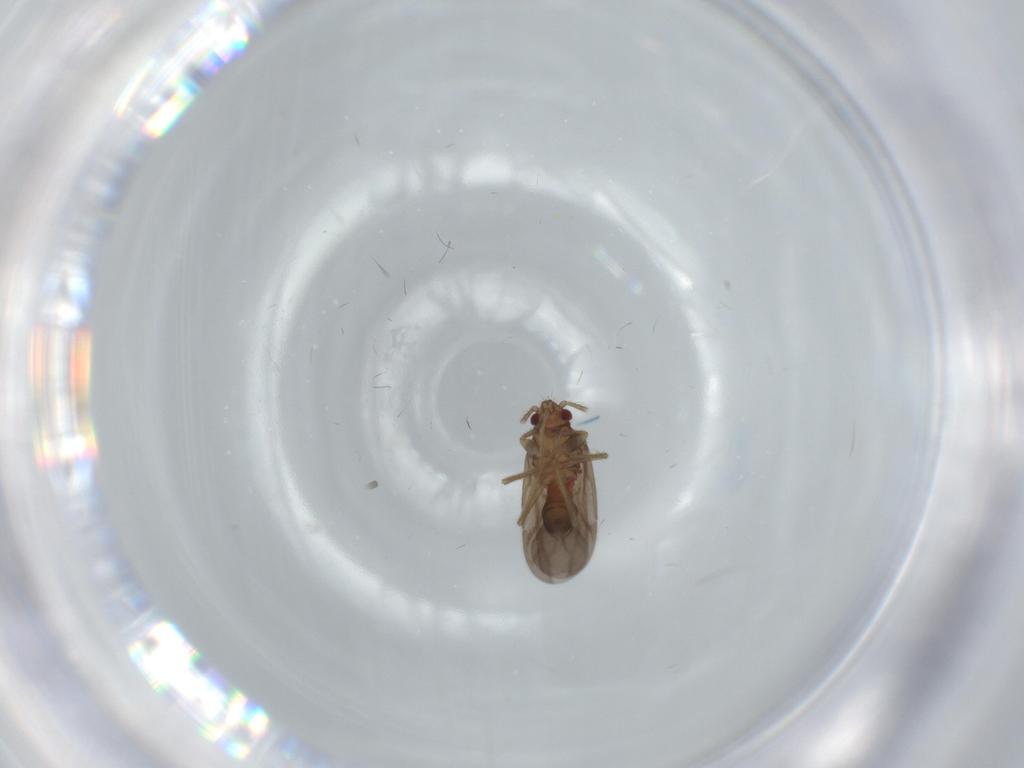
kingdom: Animalia
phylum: Arthropoda
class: Insecta
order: Hemiptera
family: Ceratocombidae
